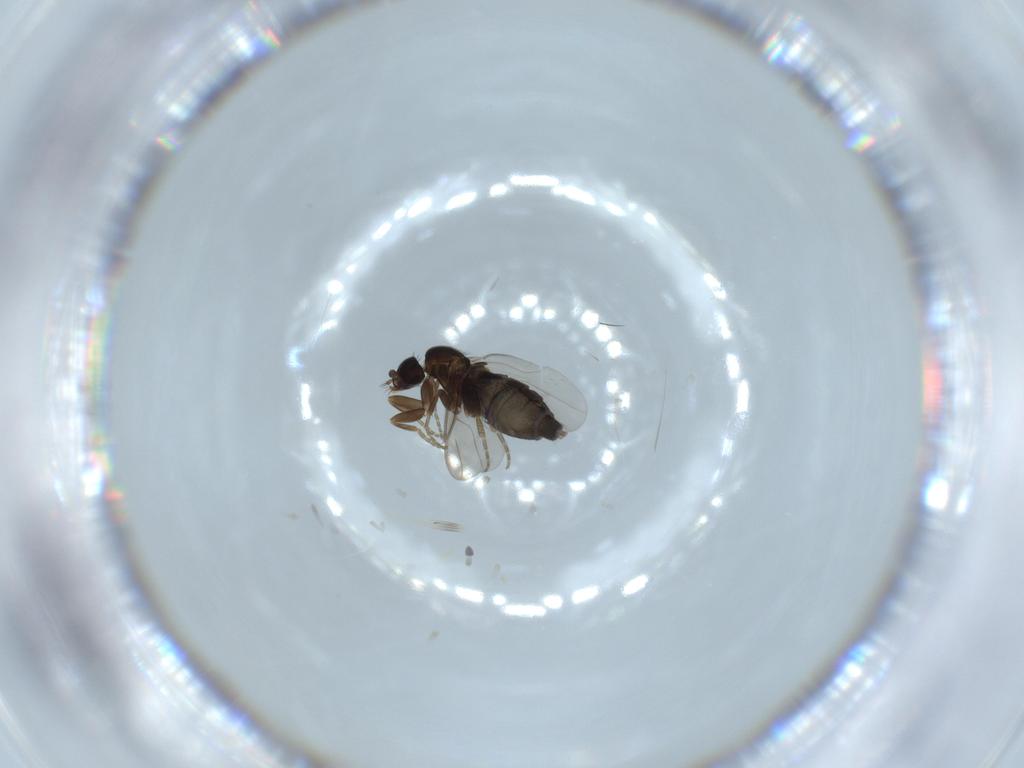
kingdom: Animalia
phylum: Arthropoda
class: Insecta
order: Diptera
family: Phoridae
